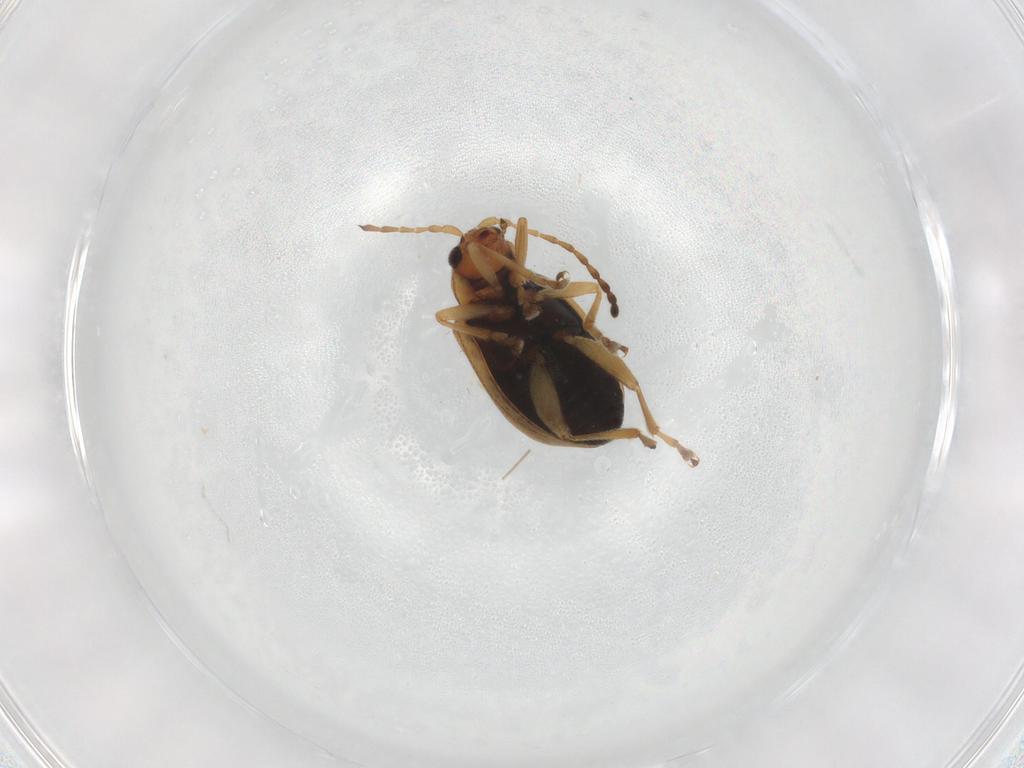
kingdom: Animalia
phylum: Arthropoda
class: Insecta
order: Coleoptera
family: Chrysomelidae
